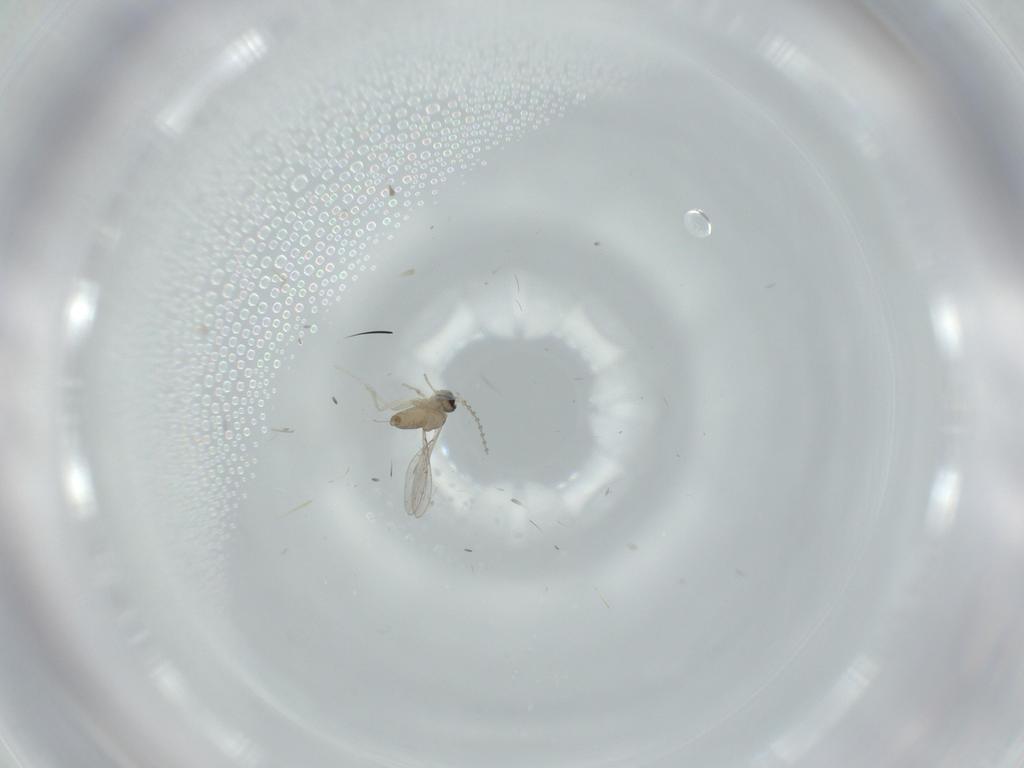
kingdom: Animalia
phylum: Arthropoda
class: Insecta
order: Diptera
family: Cecidomyiidae
